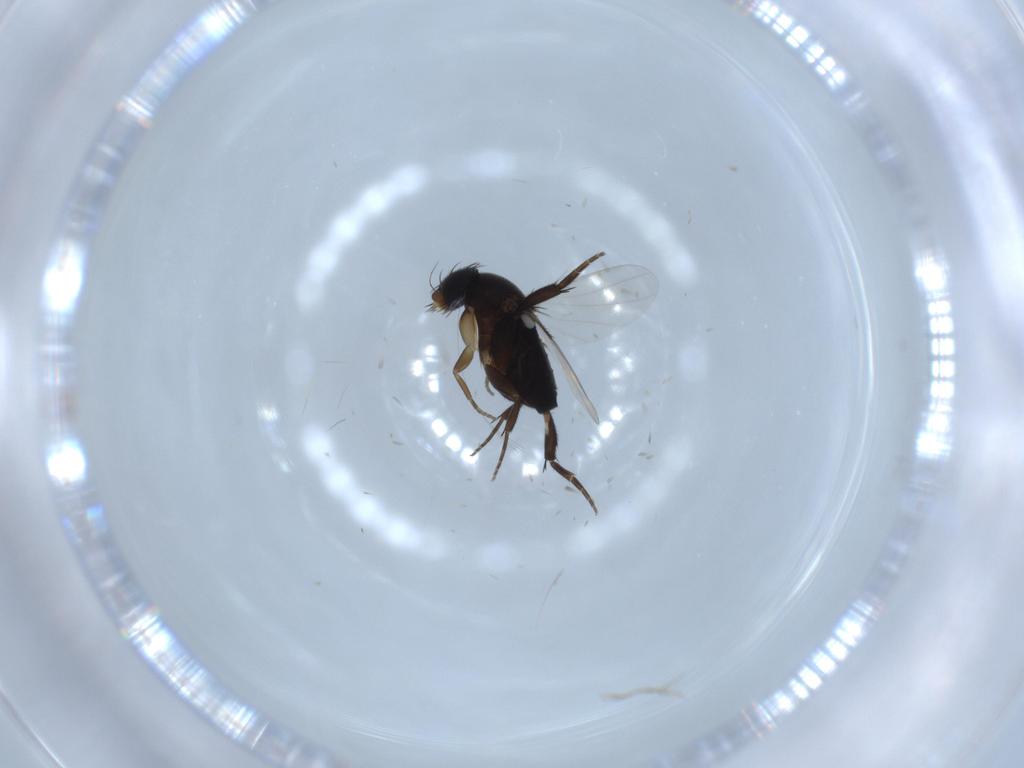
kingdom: Animalia
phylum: Arthropoda
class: Insecta
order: Diptera
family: Chironomidae
